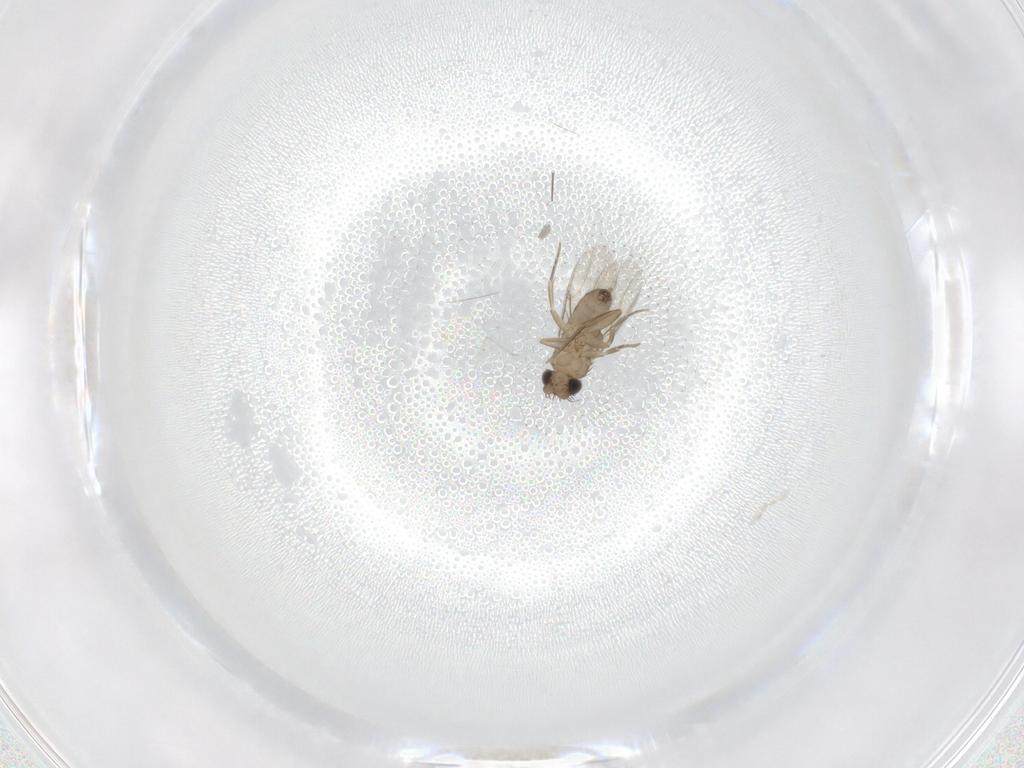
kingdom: Animalia
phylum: Arthropoda
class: Insecta
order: Diptera
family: Phoridae
